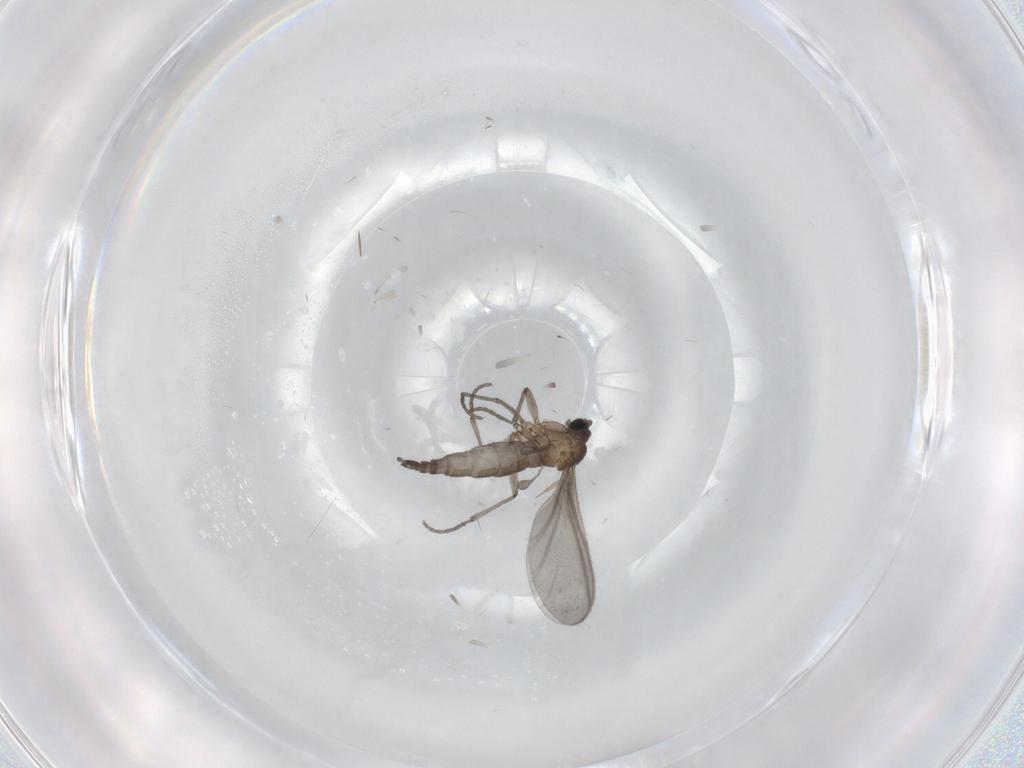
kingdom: Animalia
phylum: Arthropoda
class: Insecta
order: Diptera
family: Sciaridae
